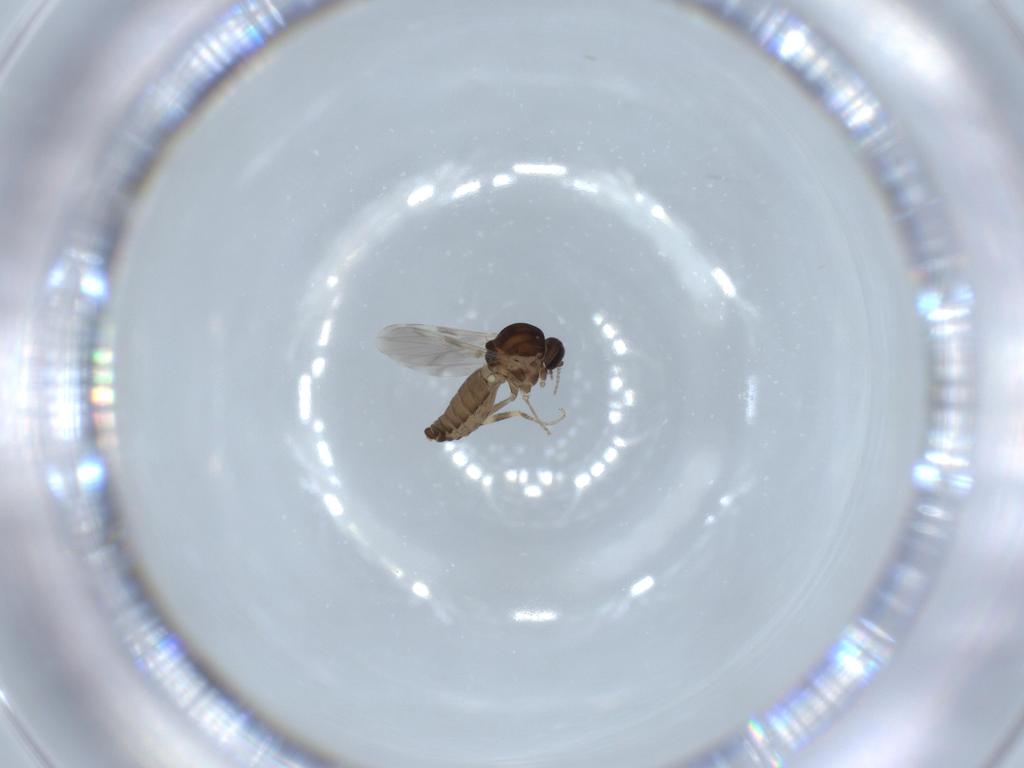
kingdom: Animalia
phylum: Arthropoda
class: Insecta
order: Diptera
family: Ceratopogonidae
